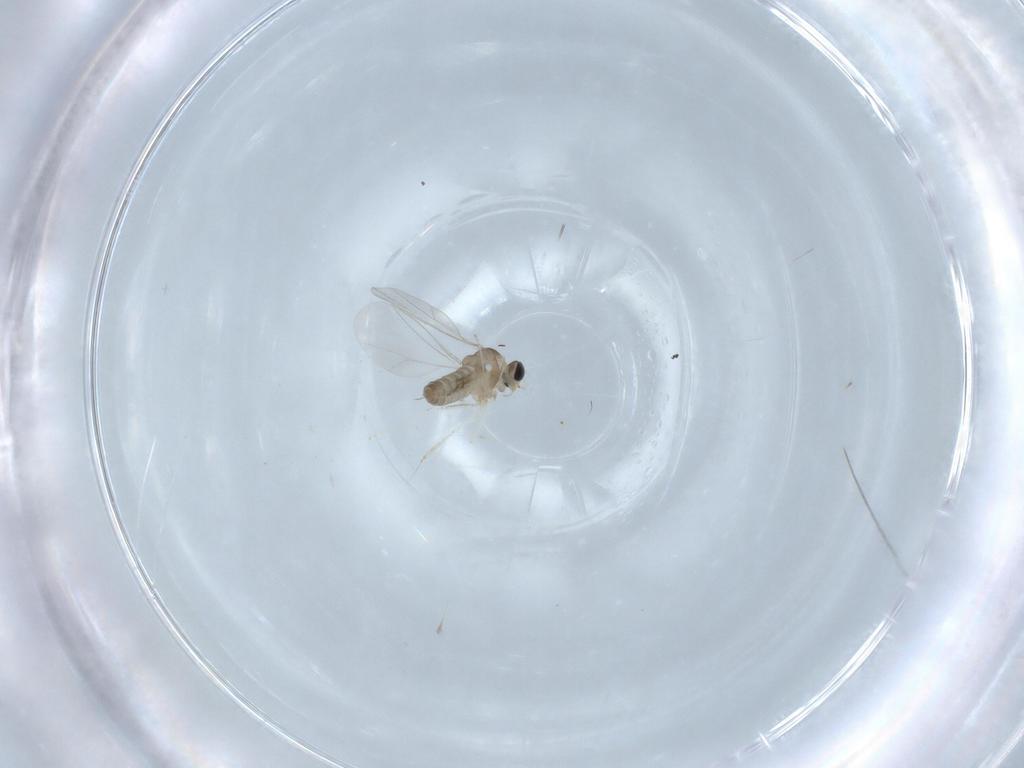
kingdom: Animalia
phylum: Arthropoda
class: Insecta
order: Diptera
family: Cecidomyiidae
